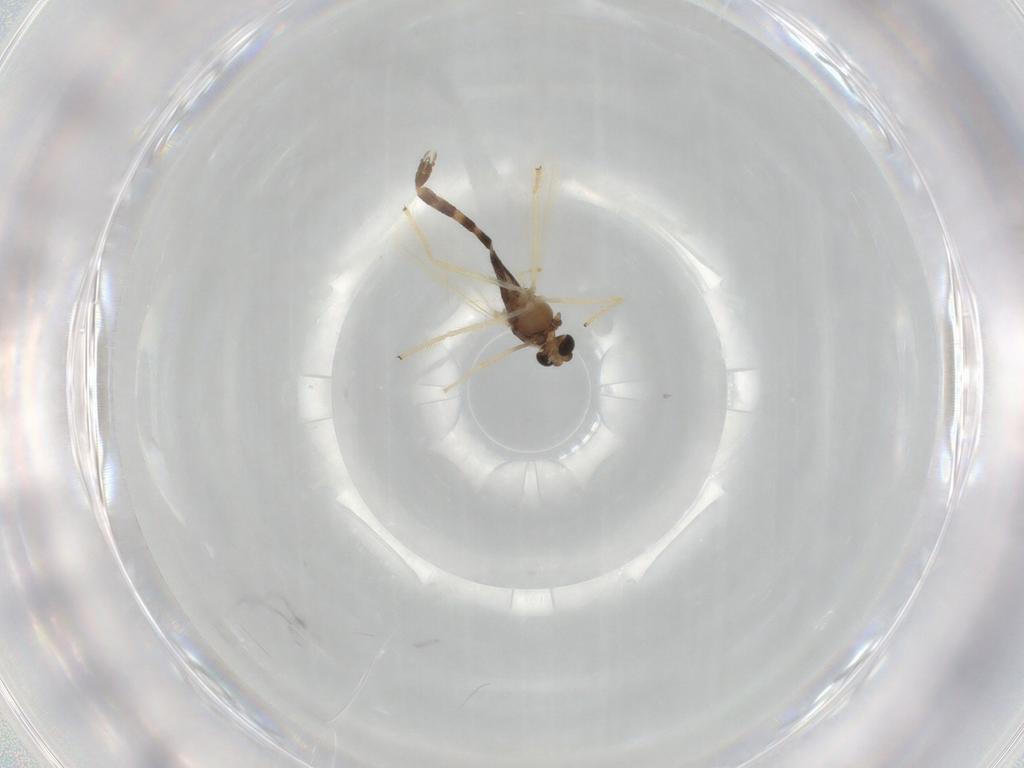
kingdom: Animalia
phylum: Arthropoda
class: Insecta
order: Diptera
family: Chironomidae
